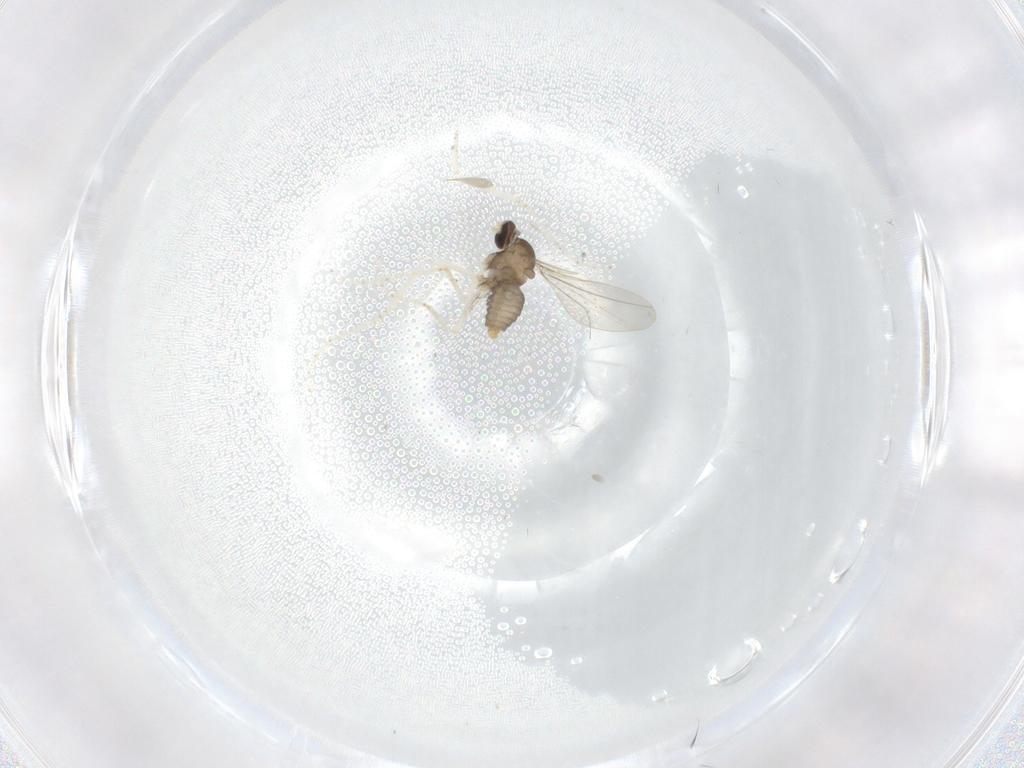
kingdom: Animalia
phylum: Arthropoda
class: Insecta
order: Diptera
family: Cecidomyiidae
